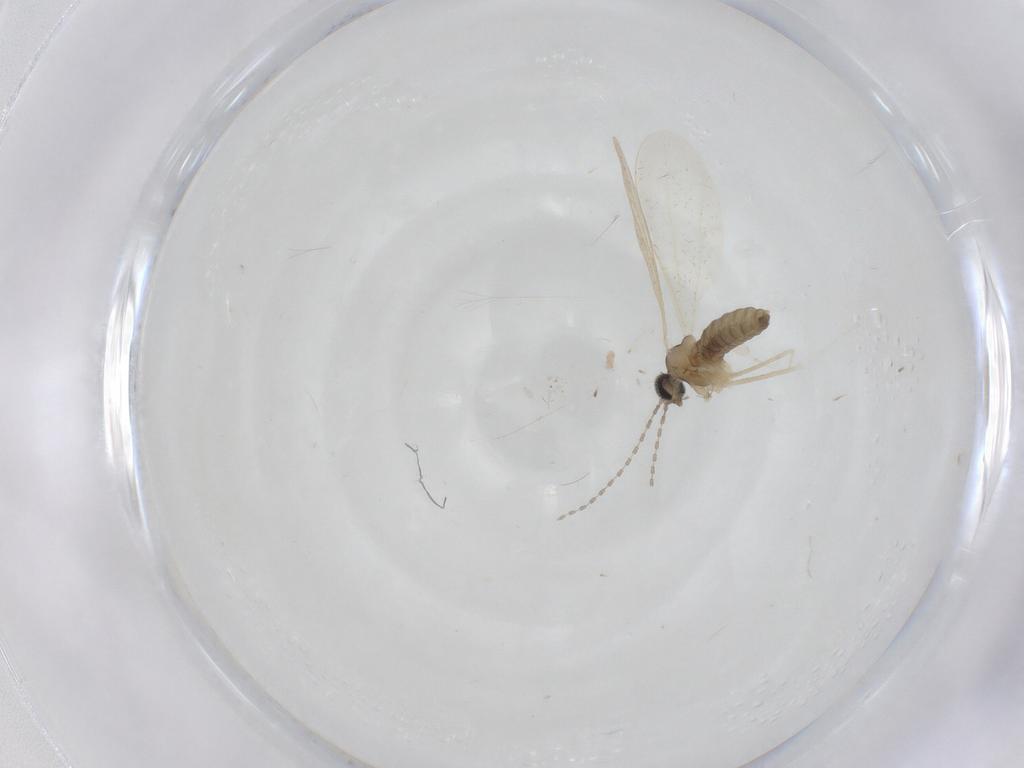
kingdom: Animalia
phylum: Arthropoda
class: Insecta
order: Diptera
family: Cecidomyiidae
